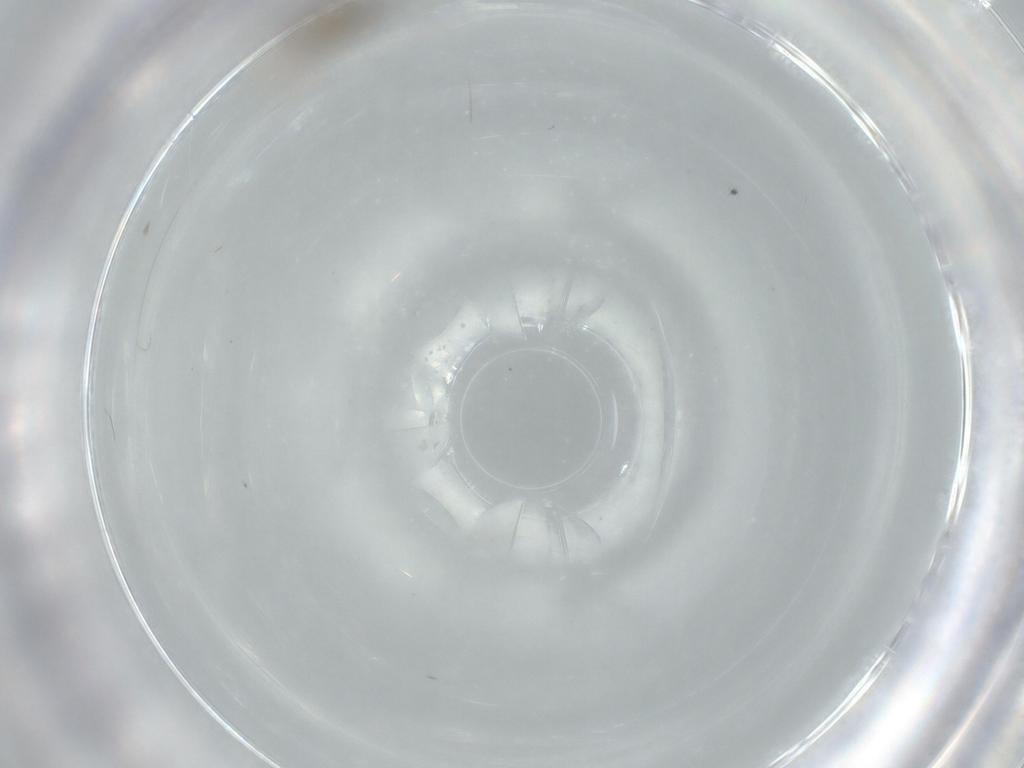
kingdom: Animalia
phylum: Arthropoda
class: Insecta
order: Hymenoptera
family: Diapriidae
